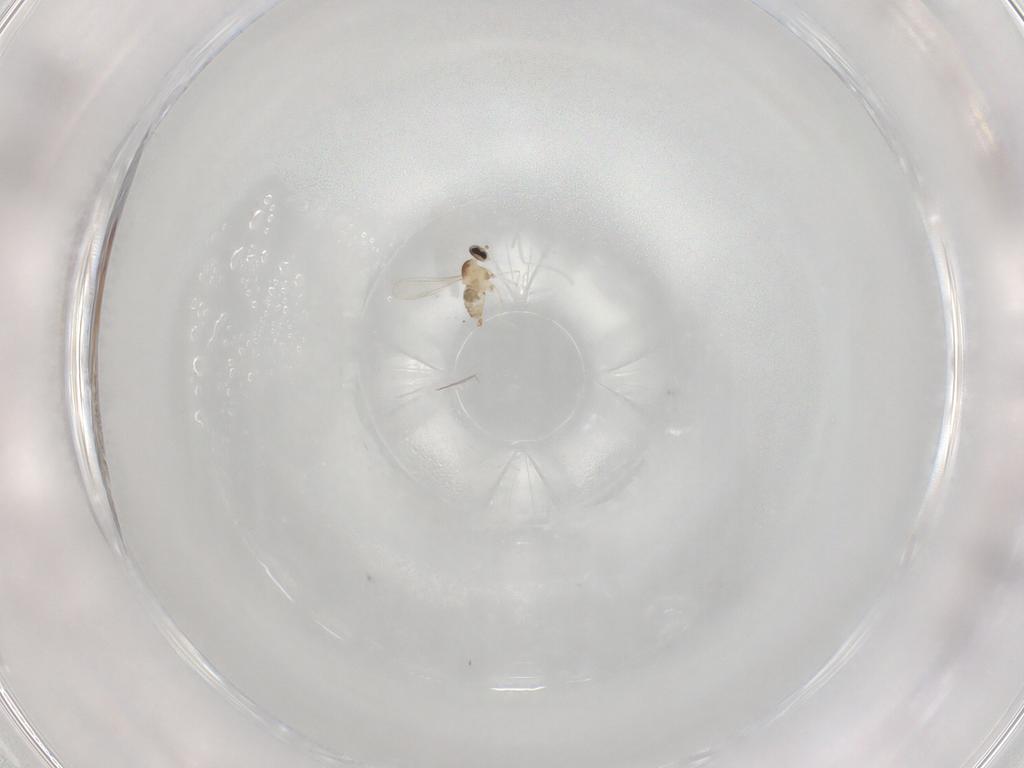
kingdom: Animalia
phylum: Arthropoda
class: Insecta
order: Diptera
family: Cecidomyiidae
